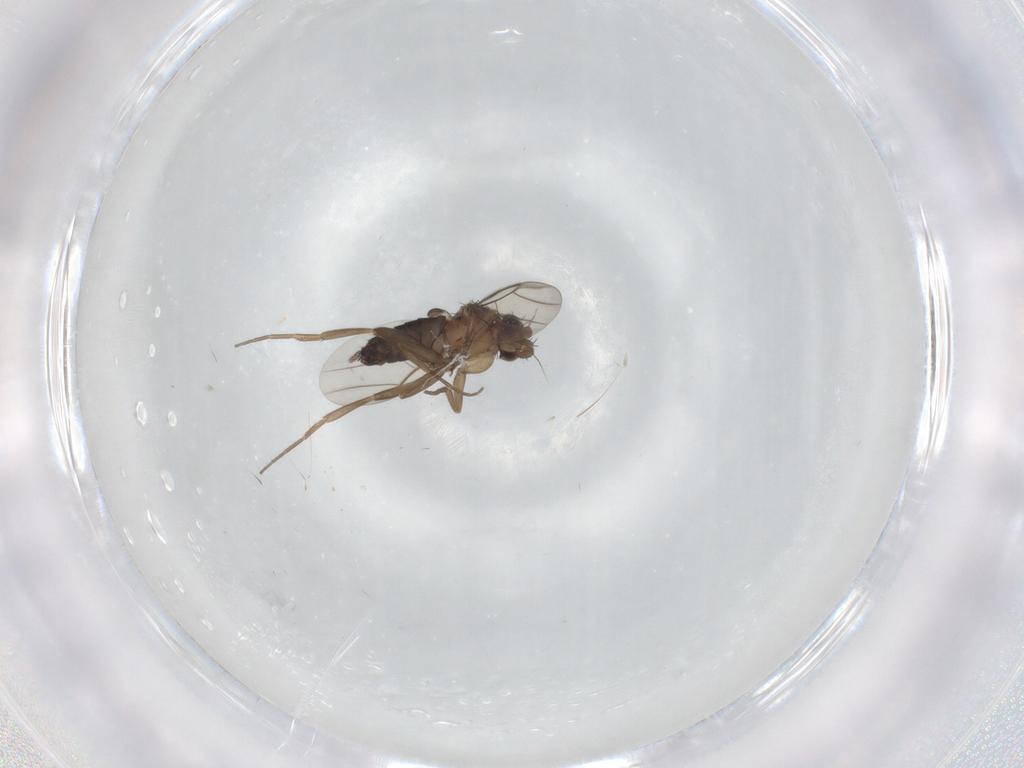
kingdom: Animalia
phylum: Arthropoda
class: Insecta
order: Diptera
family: Phoridae
